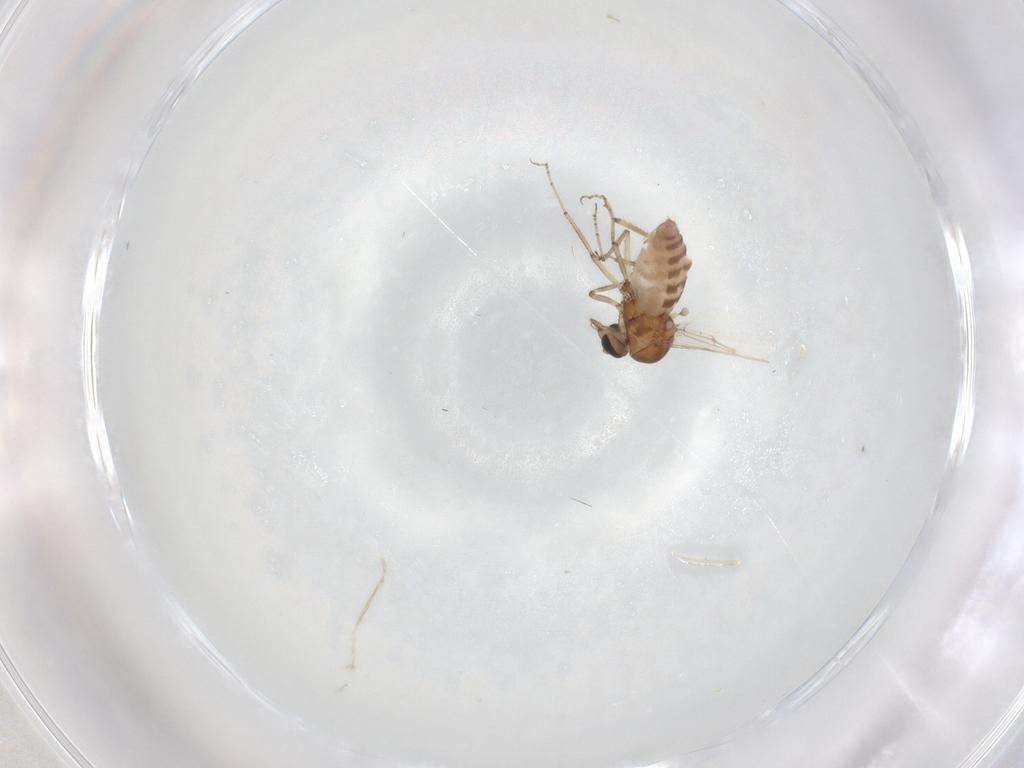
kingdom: Animalia
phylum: Arthropoda
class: Insecta
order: Diptera
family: Ceratopogonidae
